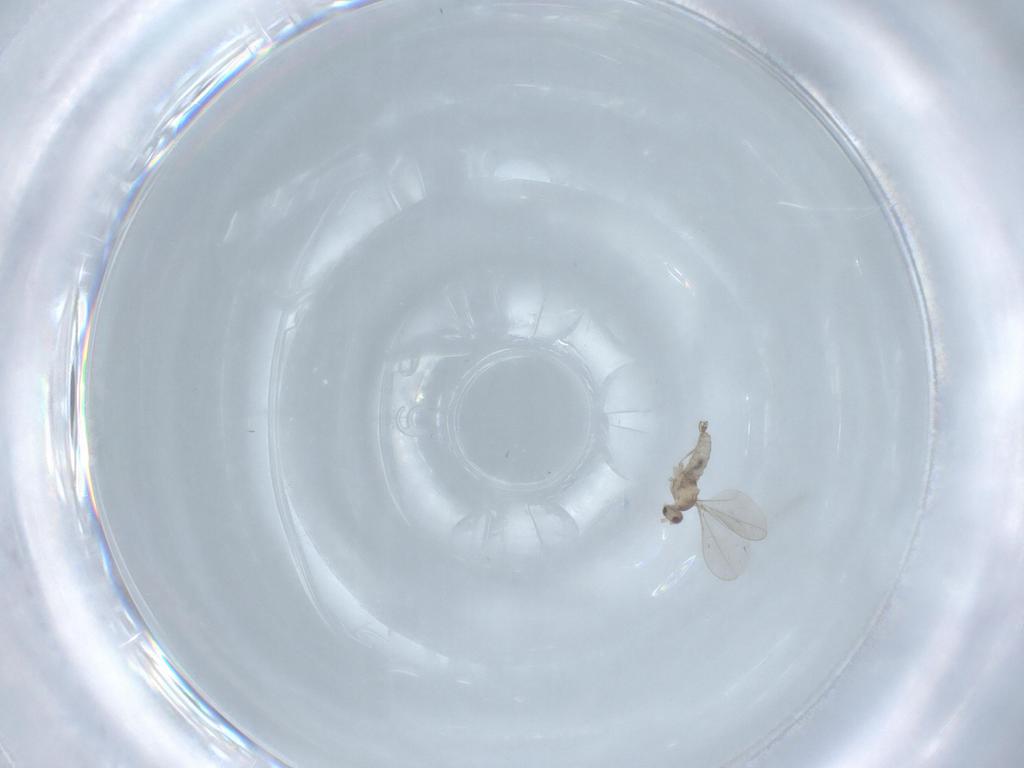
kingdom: Animalia
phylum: Arthropoda
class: Insecta
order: Diptera
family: Cecidomyiidae
